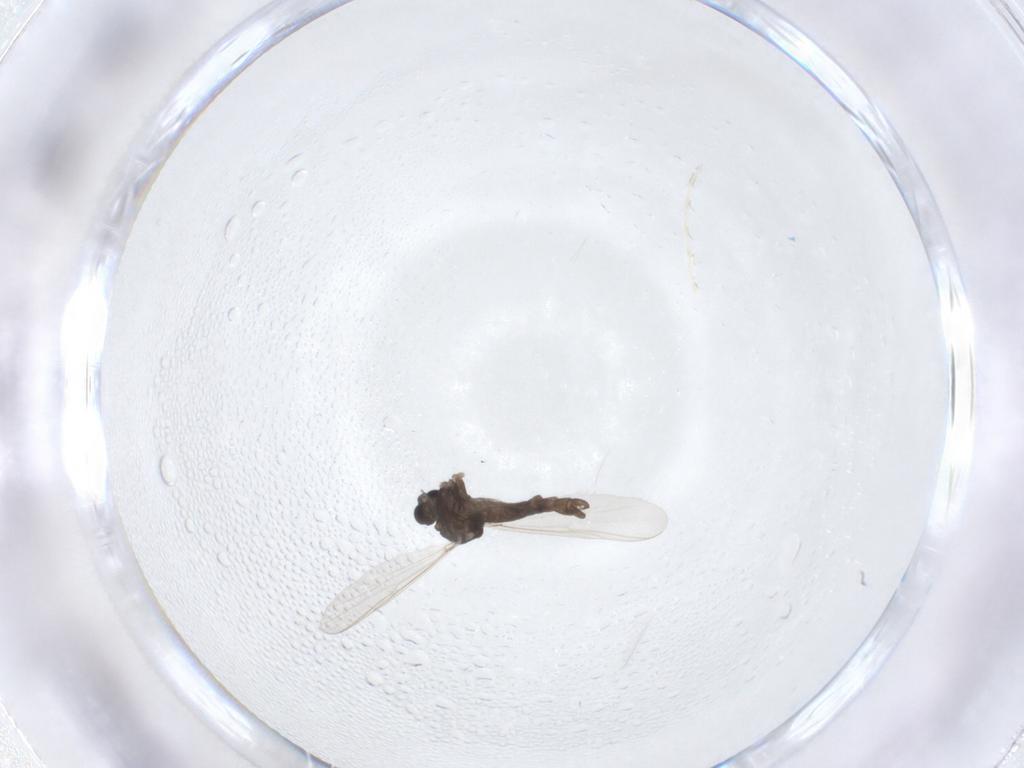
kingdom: Animalia
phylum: Arthropoda
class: Insecta
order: Diptera
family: Chironomidae
